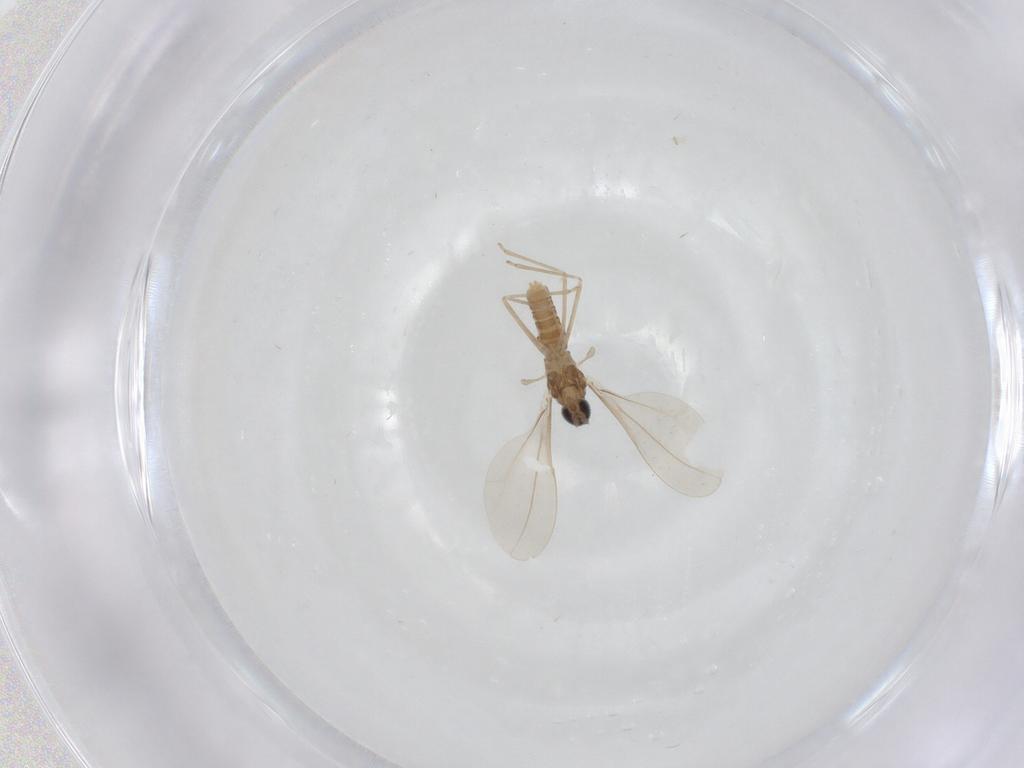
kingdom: Animalia
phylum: Arthropoda
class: Insecta
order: Diptera
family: Cecidomyiidae
